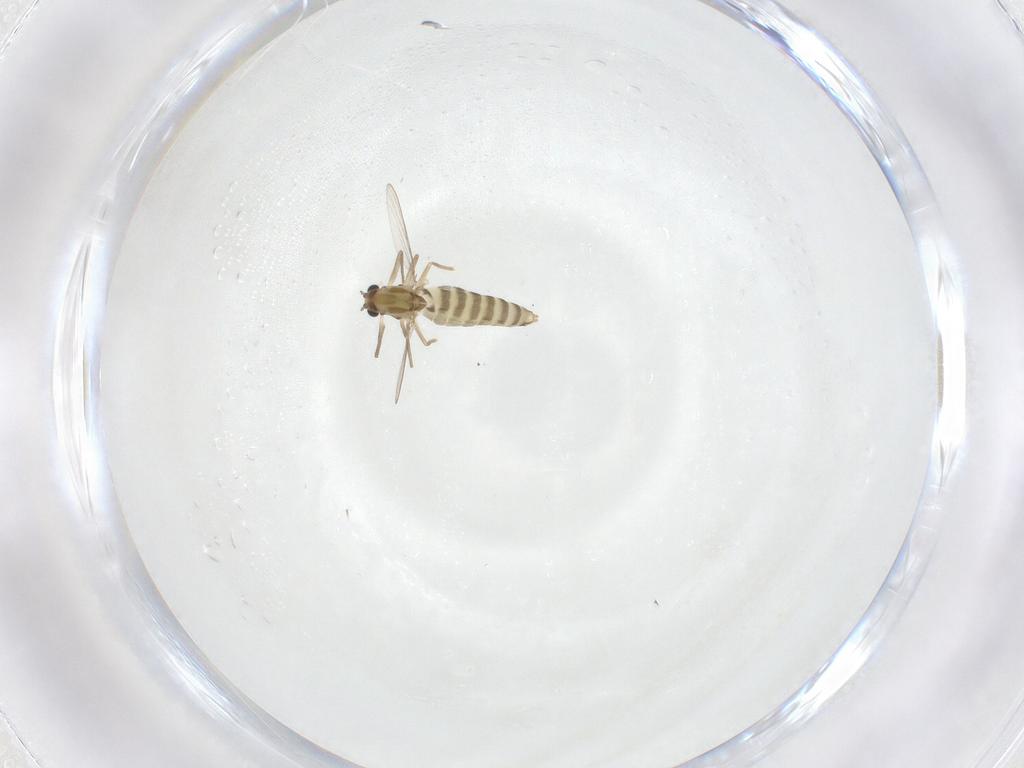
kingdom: Animalia
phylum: Arthropoda
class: Insecta
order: Diptera
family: Chironomidae
